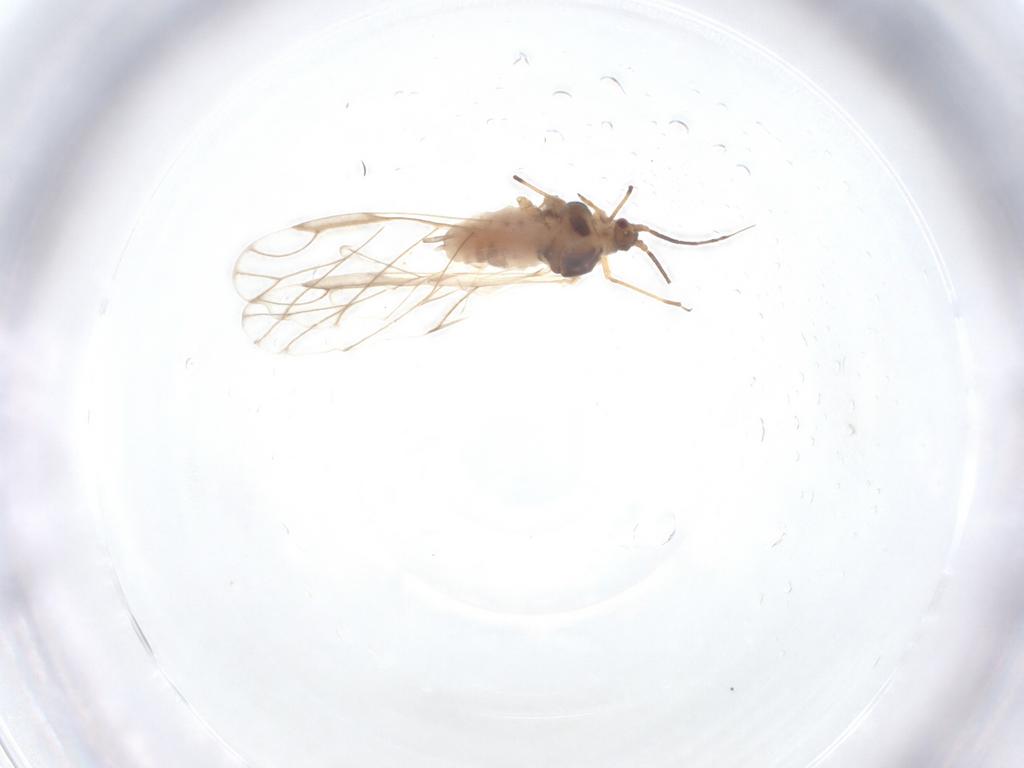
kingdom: Animalia
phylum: Arthropoda
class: Insecta
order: Hemiptera
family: Aphididae
